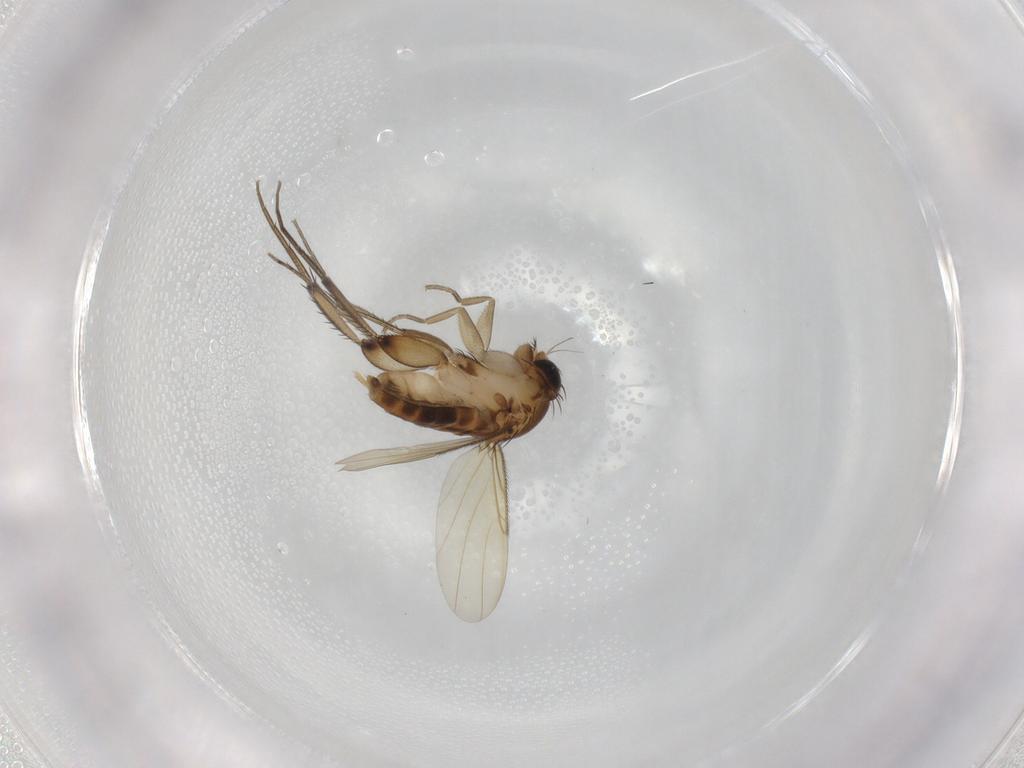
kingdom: Animalia
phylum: Arthropoda
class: Insecta
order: Diptera
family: Phoridae
